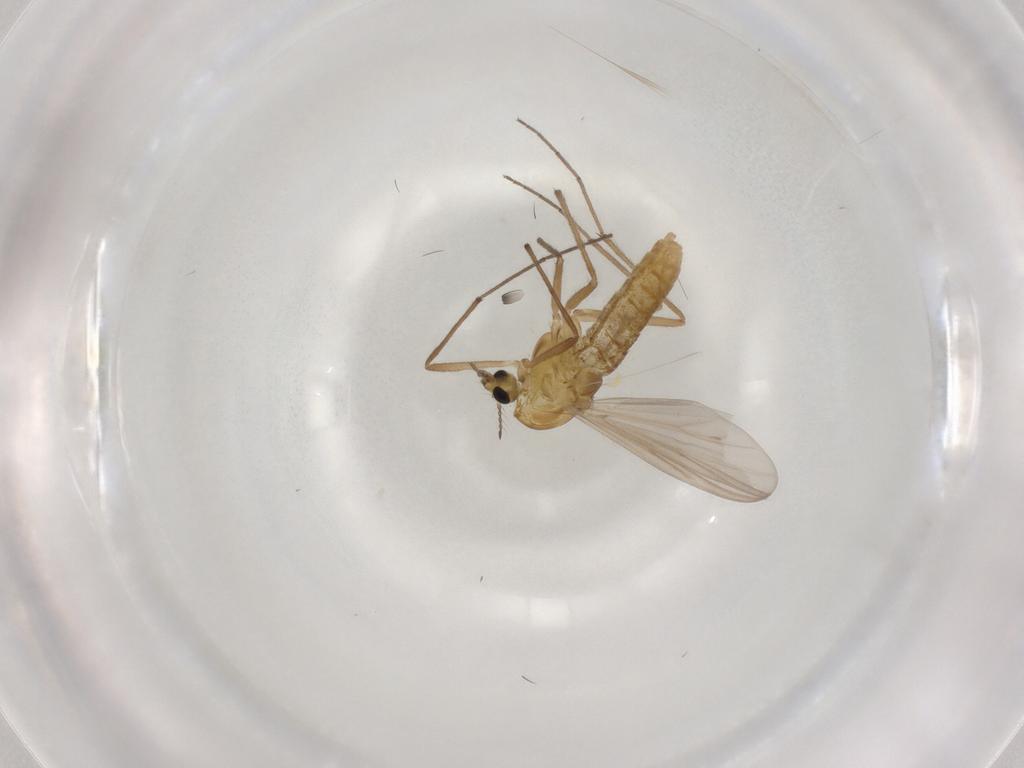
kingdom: Animalia
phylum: Arthropoda
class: Insecta
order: Diptera
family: Chironomidae
